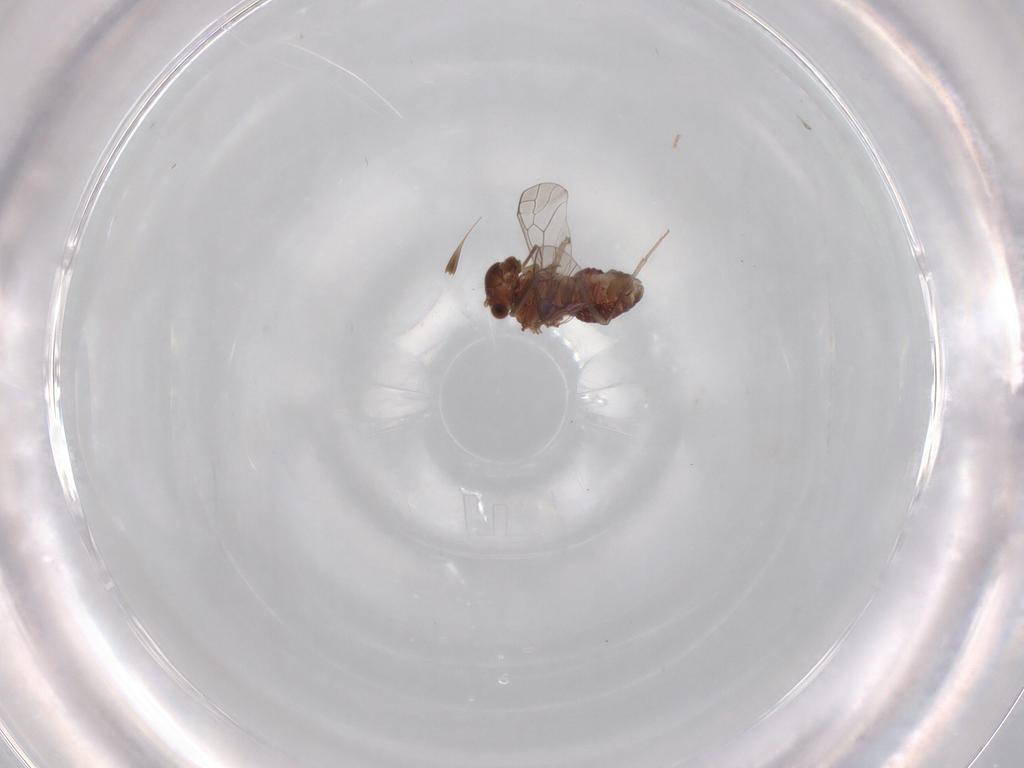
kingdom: Animalia
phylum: Arthropoda
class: Insecta
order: Psocodea
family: Lachesillidae
